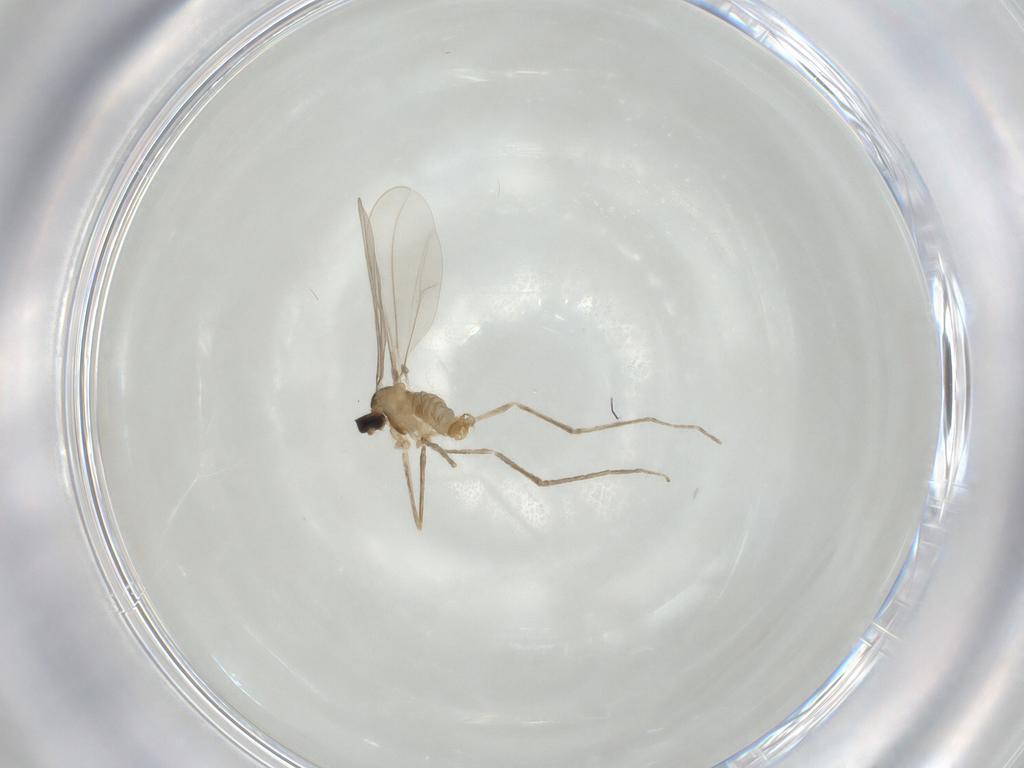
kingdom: Animalia
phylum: Arthropoda
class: Insecta
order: Diptera
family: Cecidomyiidae
